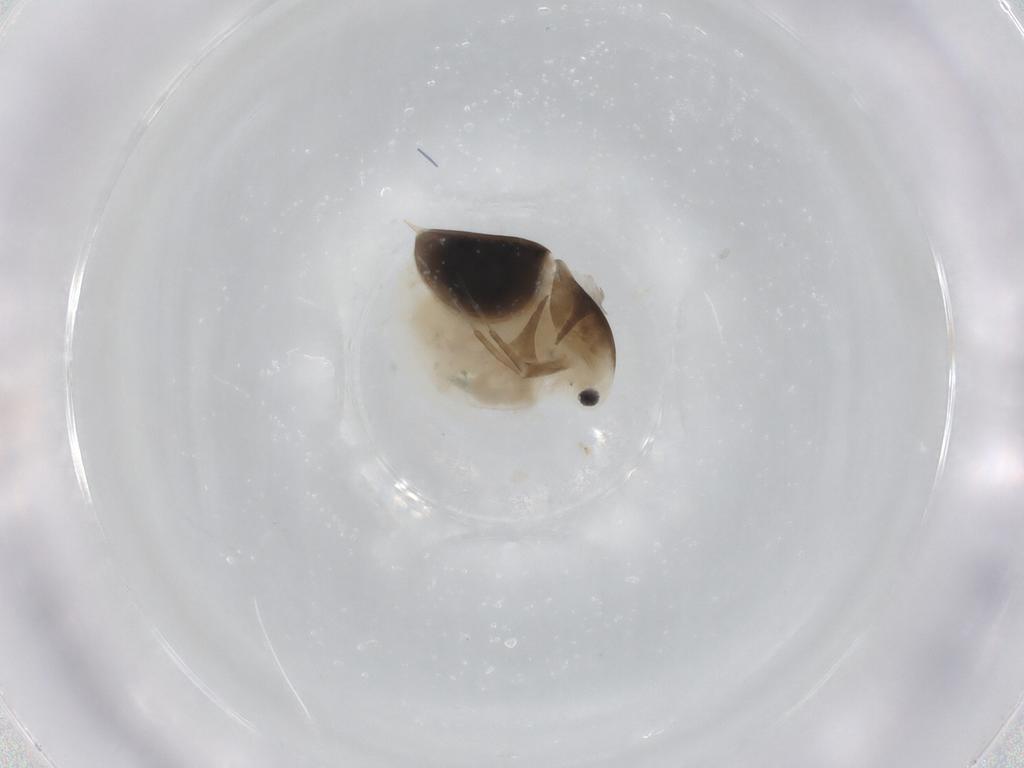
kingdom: Animalia
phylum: Arthropoda
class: Branchiopoda
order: Diplostraca
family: Daphniidae
